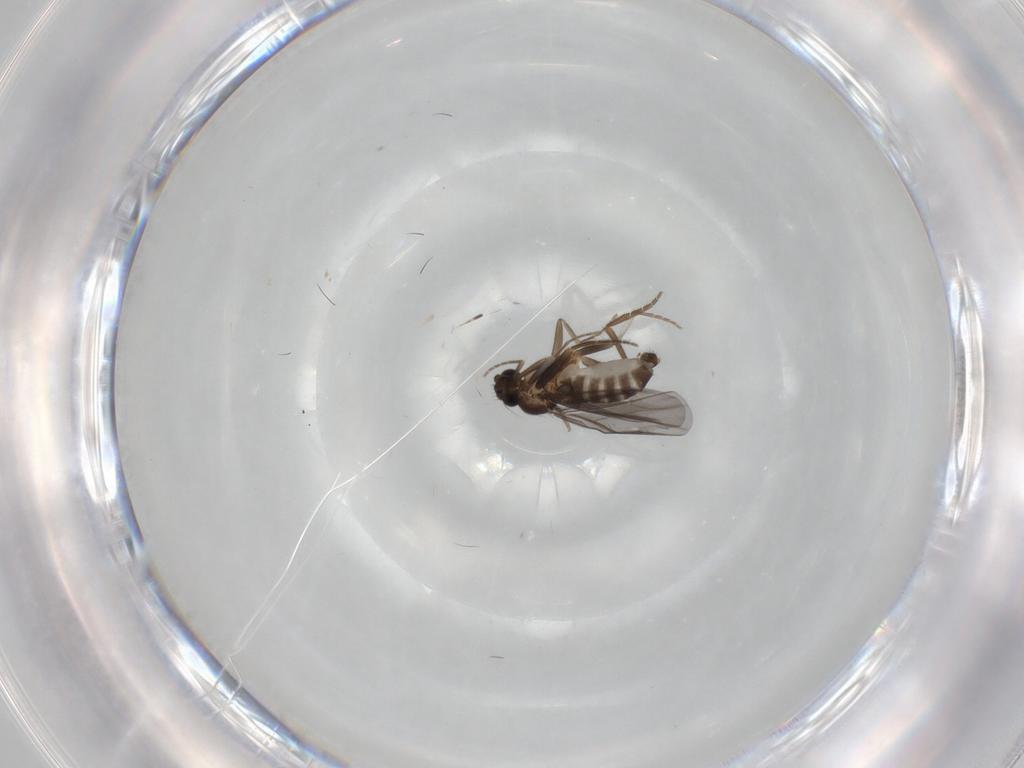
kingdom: Animalia
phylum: Arthropoda
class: Insecta
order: Diptera
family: Mycetophilidae
